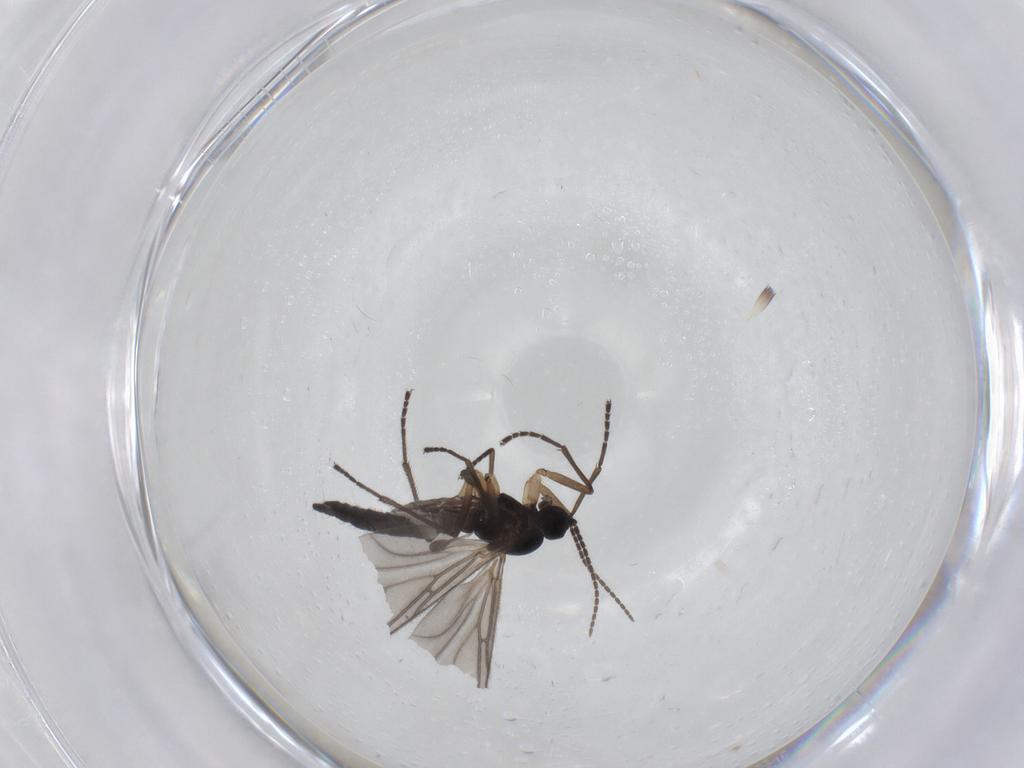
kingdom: Animalia
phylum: Arthropoda
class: Insecta
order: Diptera
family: Sciaridae
